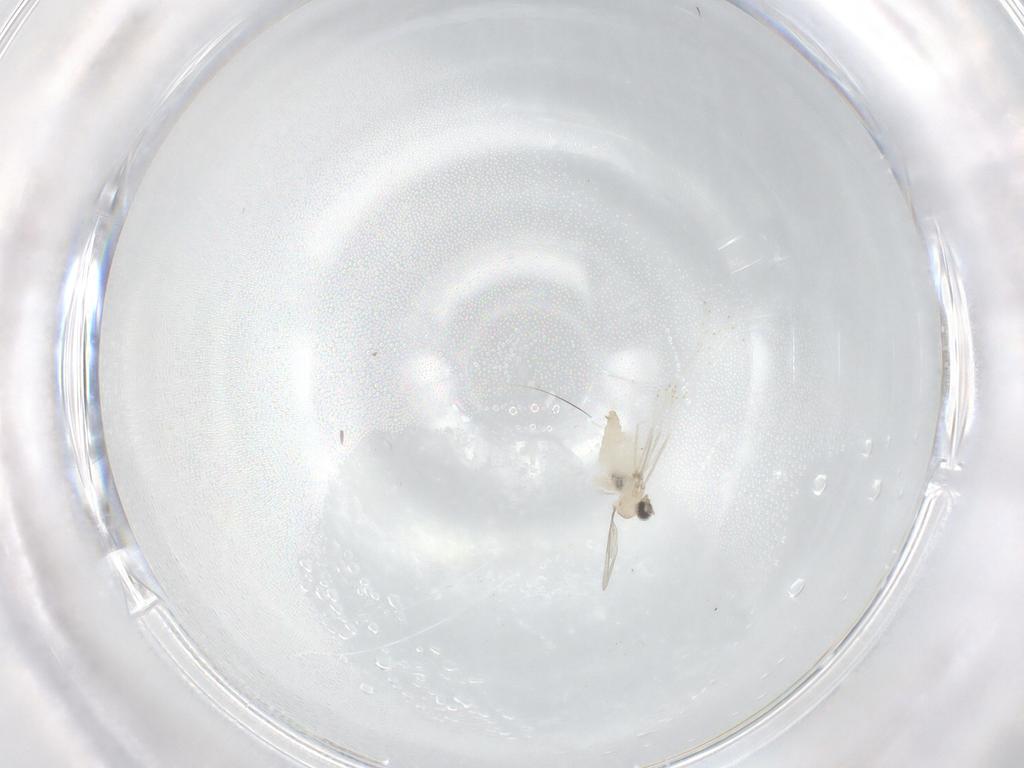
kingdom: Animalia
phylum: Arthropoda
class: Insecta
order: Diptera
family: Cecidomyiidae
